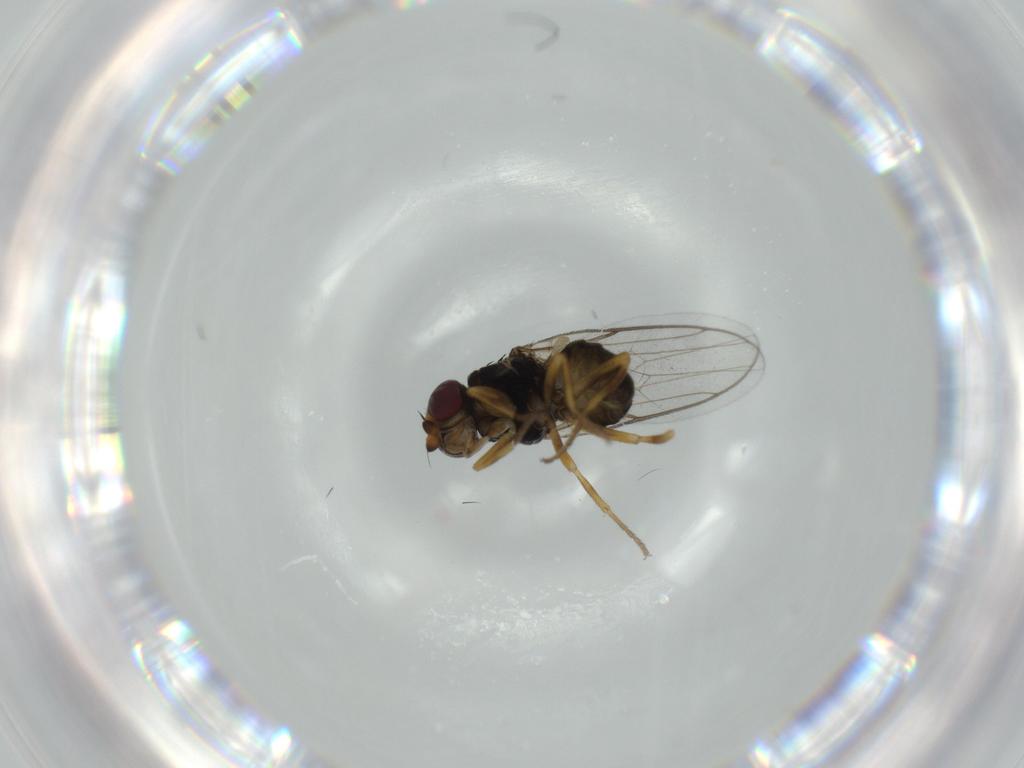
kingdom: Animalia
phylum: Arthropoda
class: Insecta
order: Diptera
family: Chloropidae
